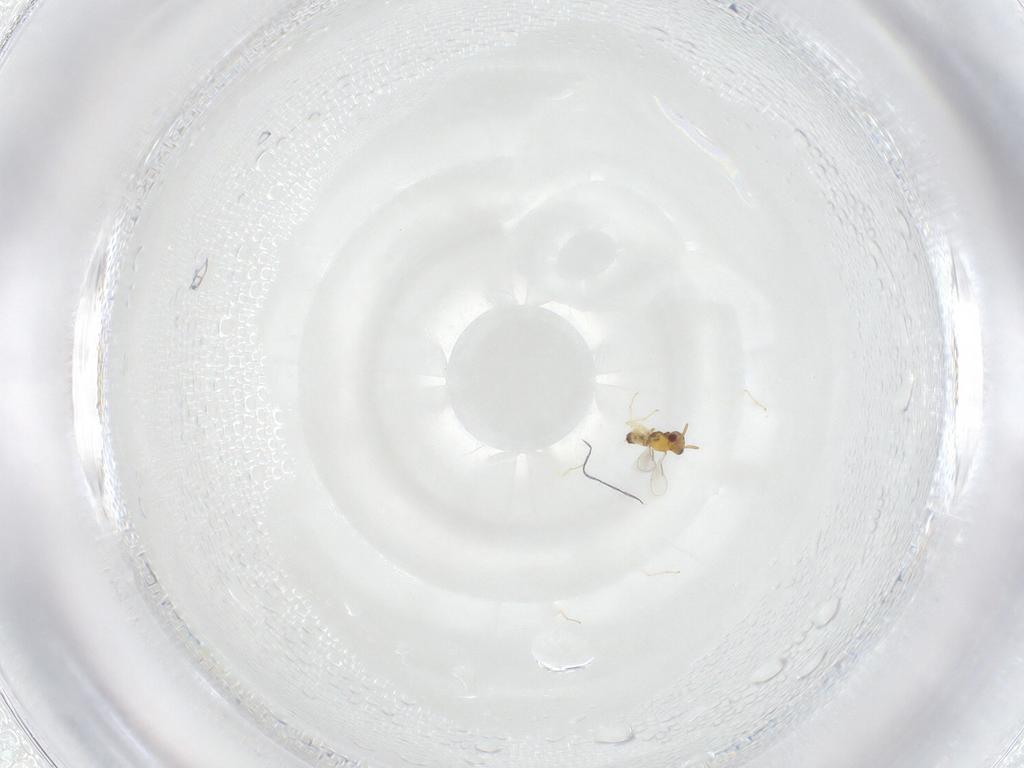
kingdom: Animalia
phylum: Arthropoda
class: Insecta
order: Hymenoptera
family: Aphelinidae
